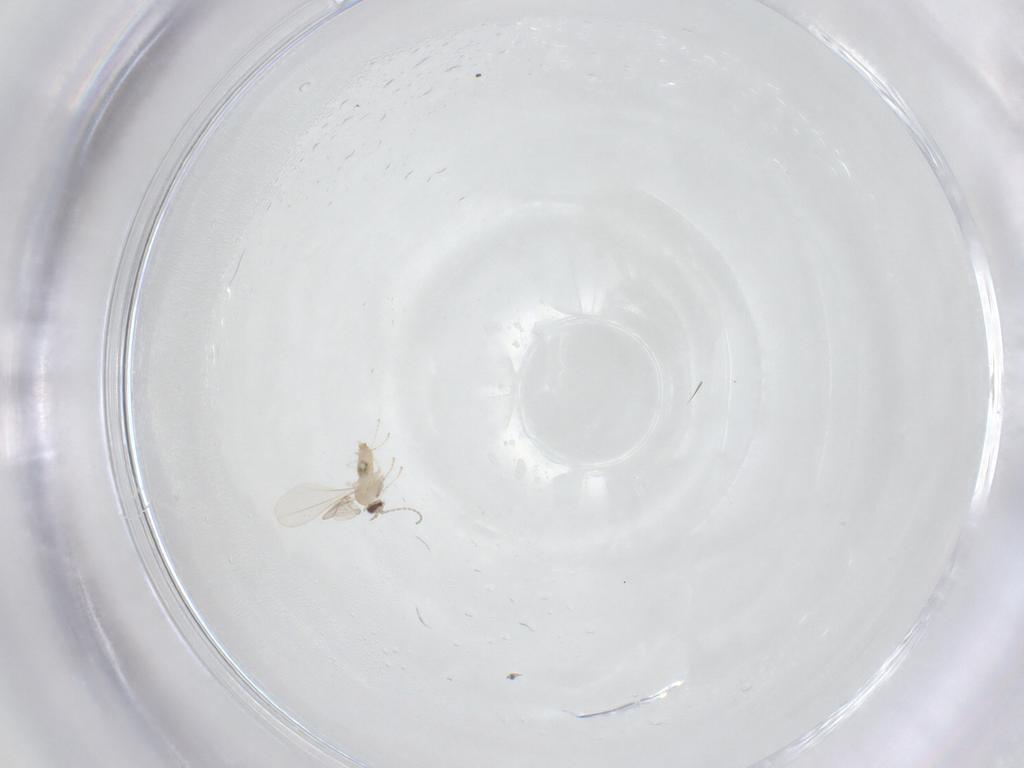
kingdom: Animalia
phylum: Arthropoda
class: Insecta
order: Diptera
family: Cecidomyiidae
